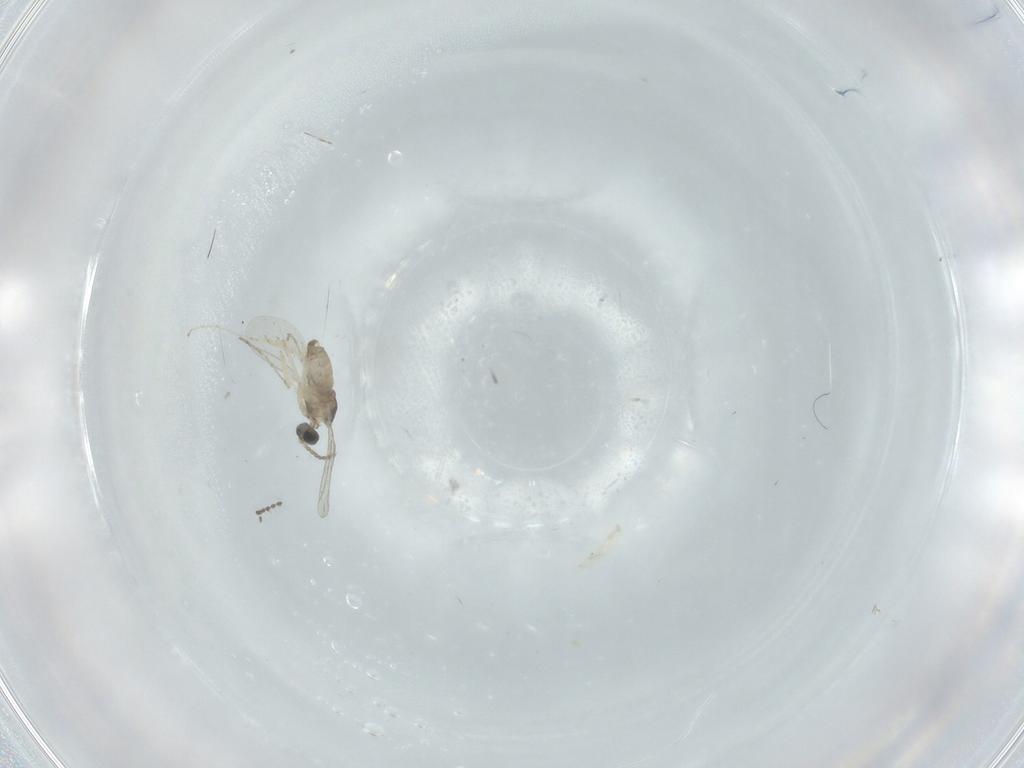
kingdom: Animalia
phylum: Arthropoda
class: Insecta
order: Diptera
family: Cecidomyiidae
